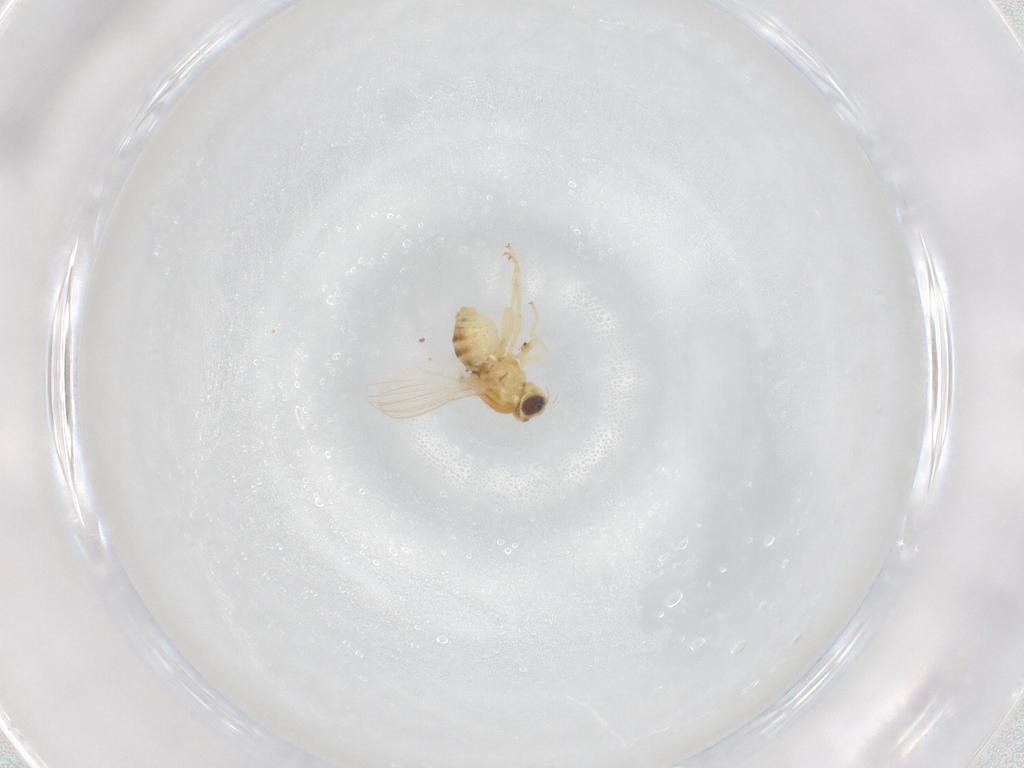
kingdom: Animalia
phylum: Arthropoda
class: Insecta
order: Diptera
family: Chyromyidae
